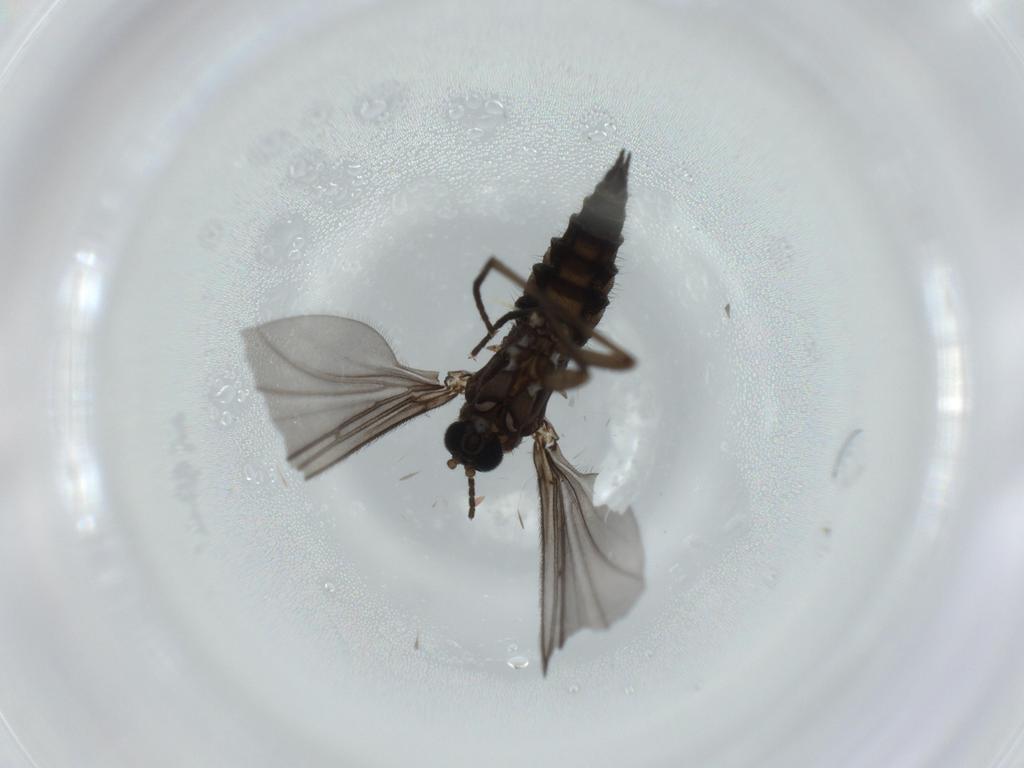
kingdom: Animalia
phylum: Arthropoda
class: Insecta
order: Diptera
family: Sciaridae
